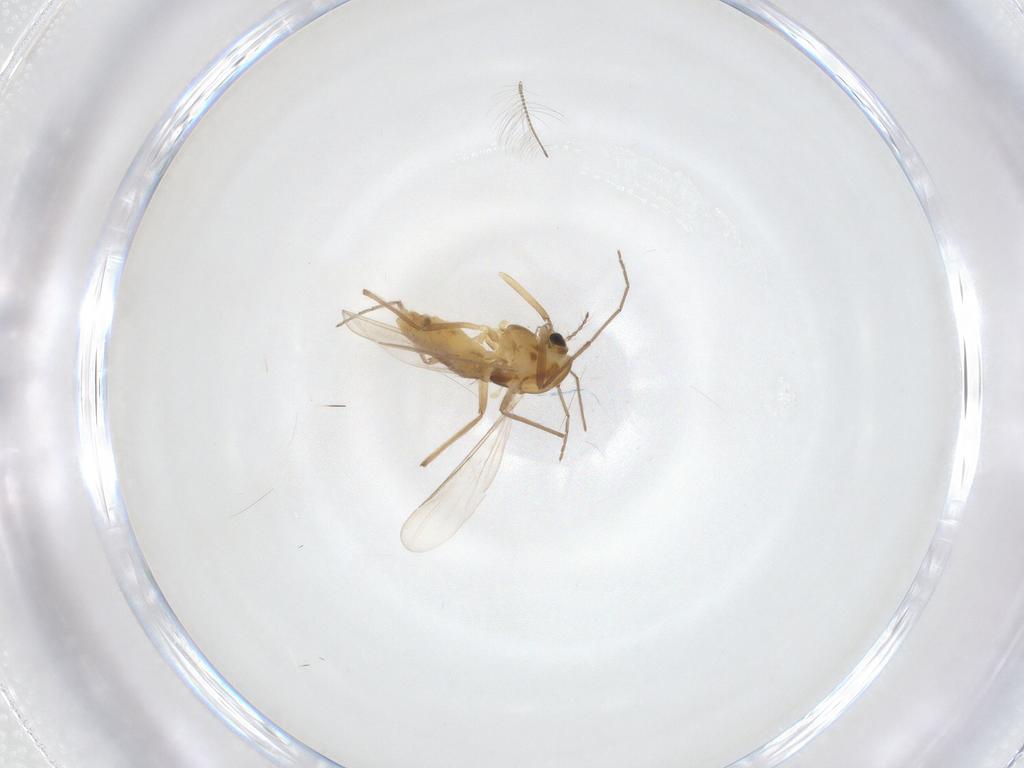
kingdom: Animalia
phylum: Arthropoda
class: Insecta
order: Diptera
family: Chironomidae
